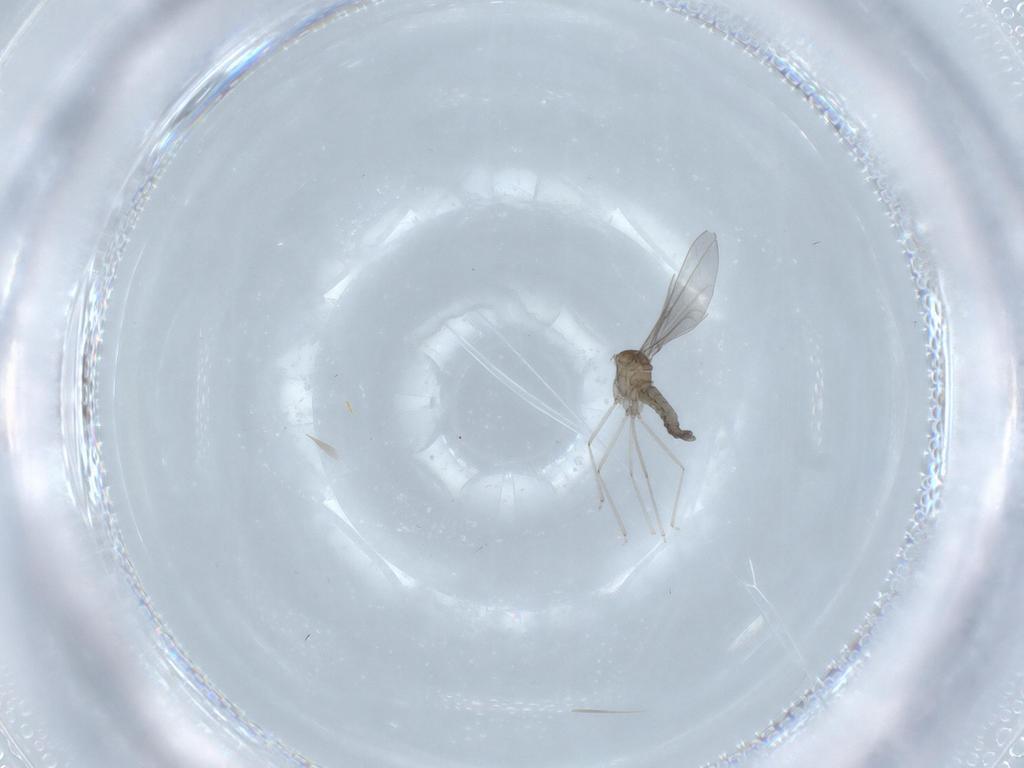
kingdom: Animalia
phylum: Arthropoda
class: Insecta
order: Diptera
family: Cecidomyiidae
